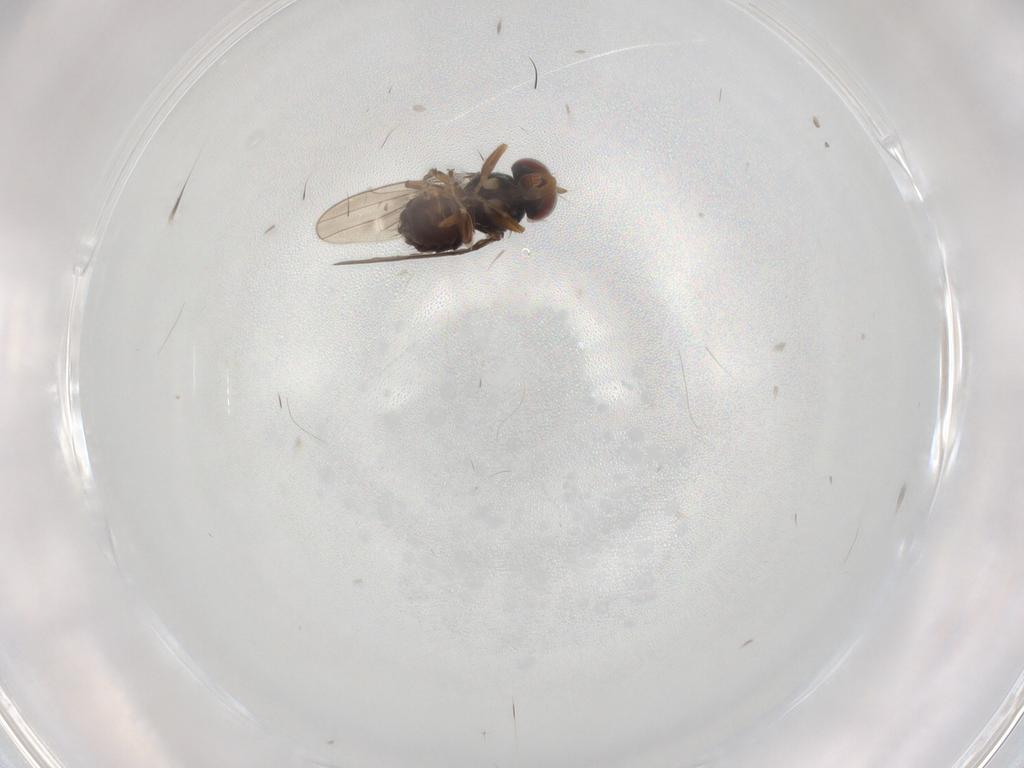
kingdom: Animalia
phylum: Arthropoda
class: Insecta
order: Diptera
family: Ephydridae
